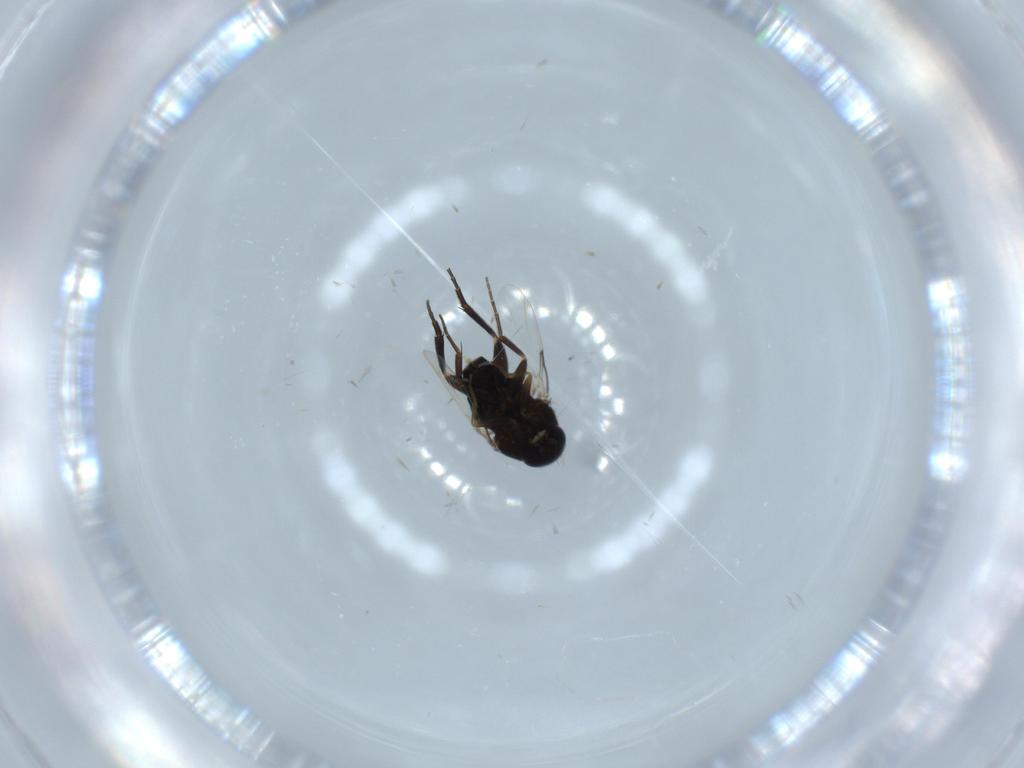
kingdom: Animalia
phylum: Arthropoda
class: Insecta
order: Diptera
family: Phoridae
